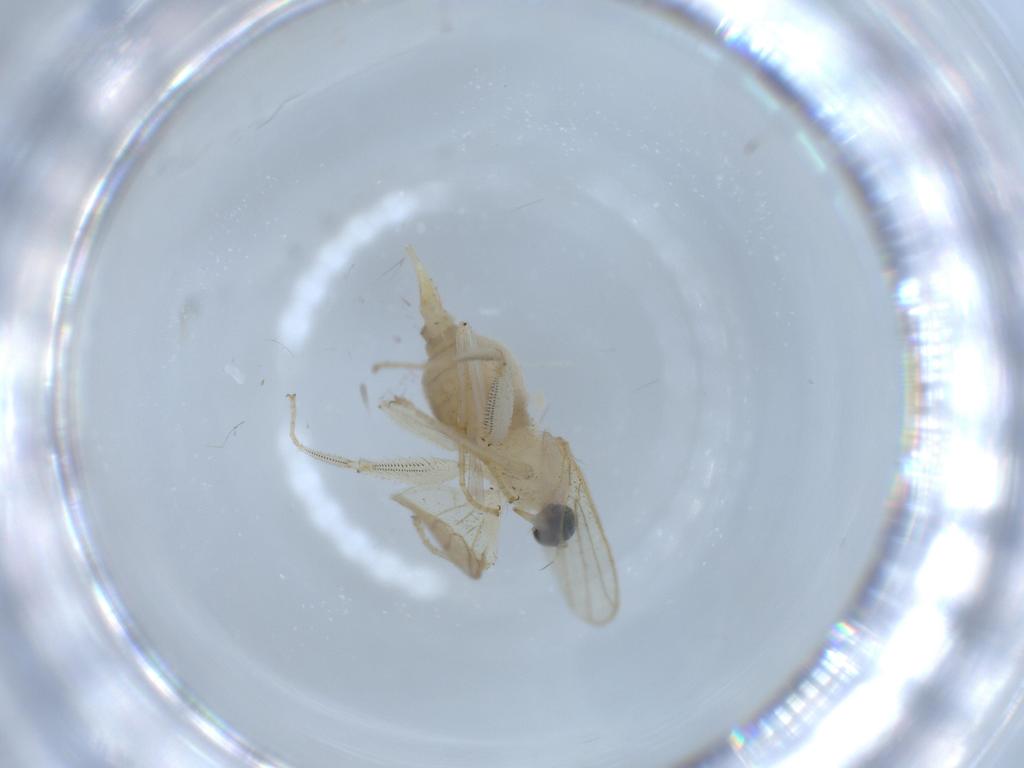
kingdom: Animalia
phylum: Arthropoda
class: Insecta
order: Diptera
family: Hybotidae
